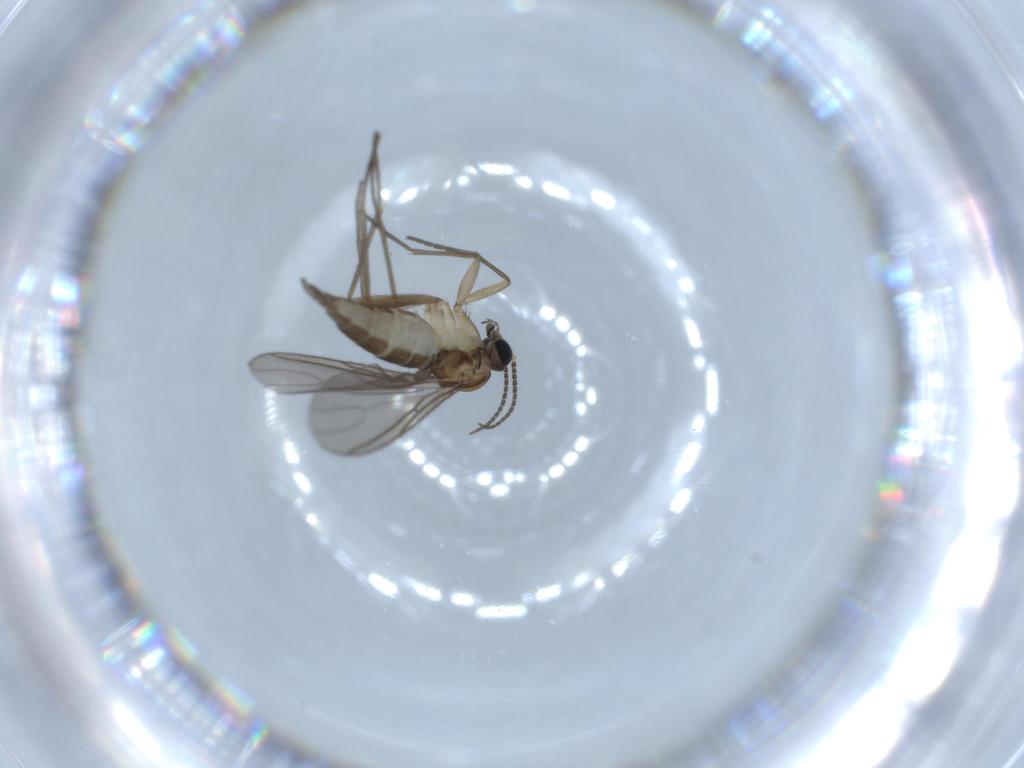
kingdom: Animalia
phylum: Arthropoda
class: Insecta
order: Diptera
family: Sciaridae
